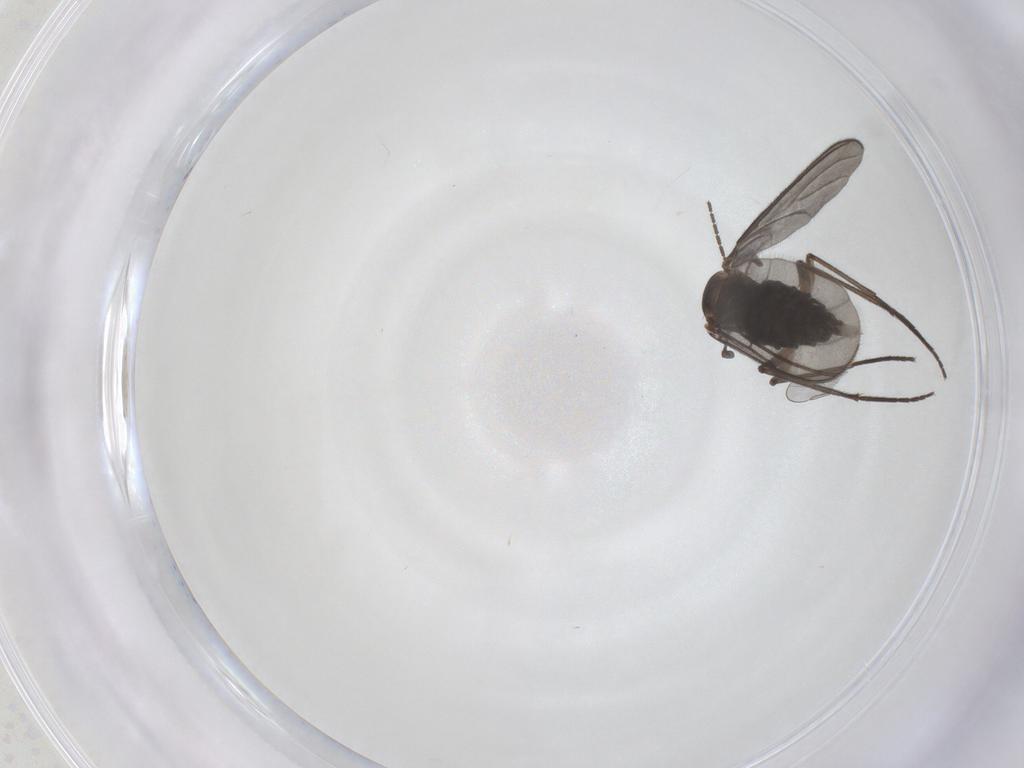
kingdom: Animalia
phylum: Arthropoda
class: Insecta
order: Diptera
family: Sciaridae
